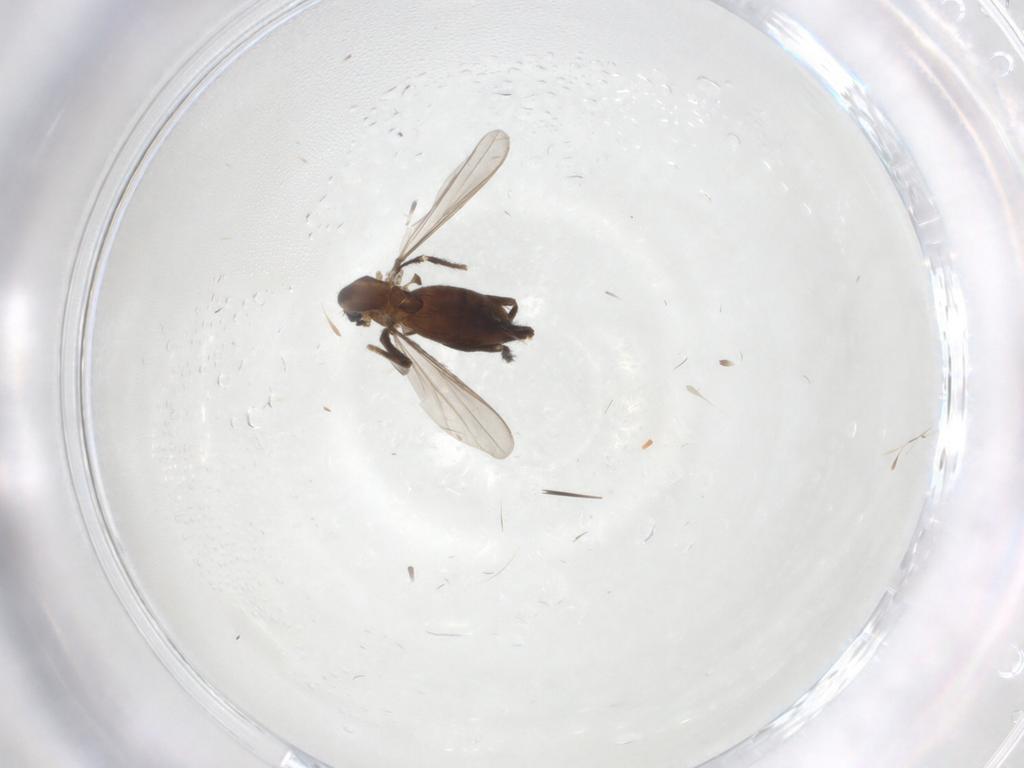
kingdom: Animalia
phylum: Arthropoda
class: Insecta
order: Diptera
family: Chironomidae
